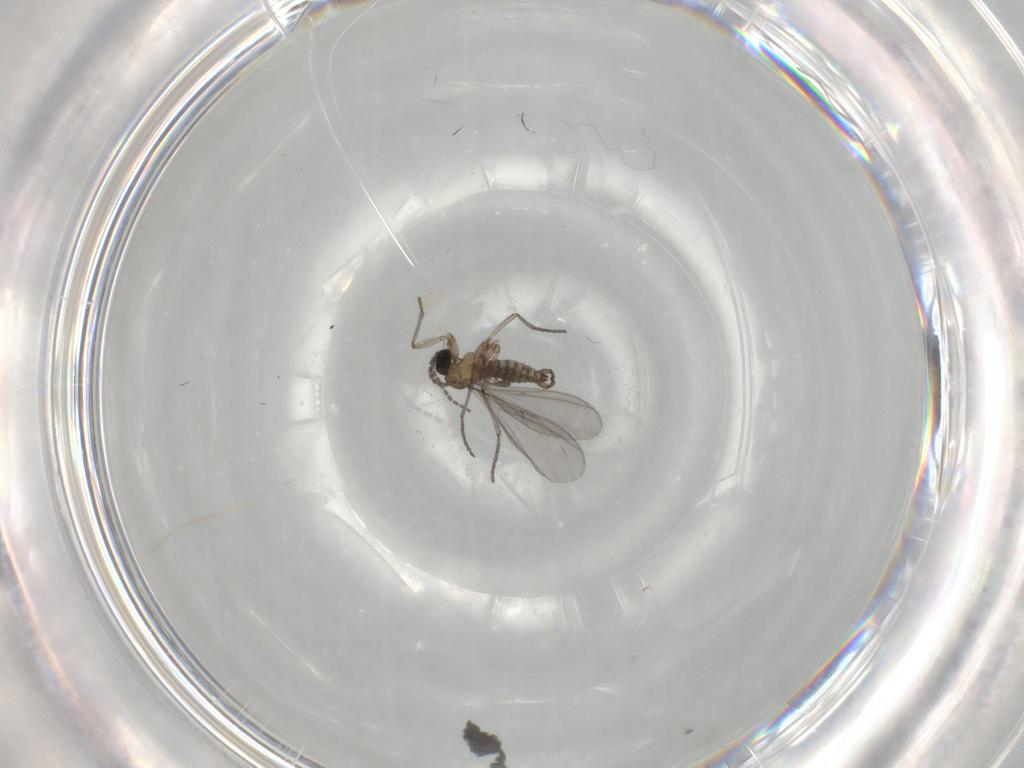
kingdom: Animalia
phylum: Arthropoda
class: Insecta
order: Diptera
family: Sciaridae
